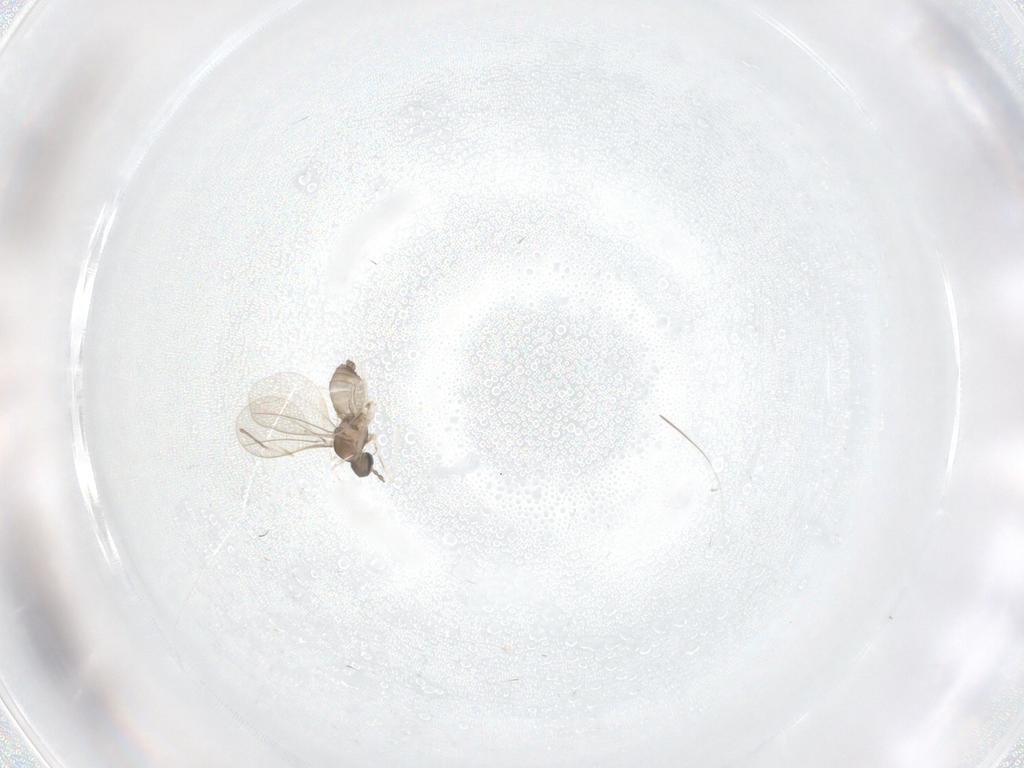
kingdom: Animalia
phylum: Arthropoda
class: Insecta
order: Diptera
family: Cecidomyiidae
